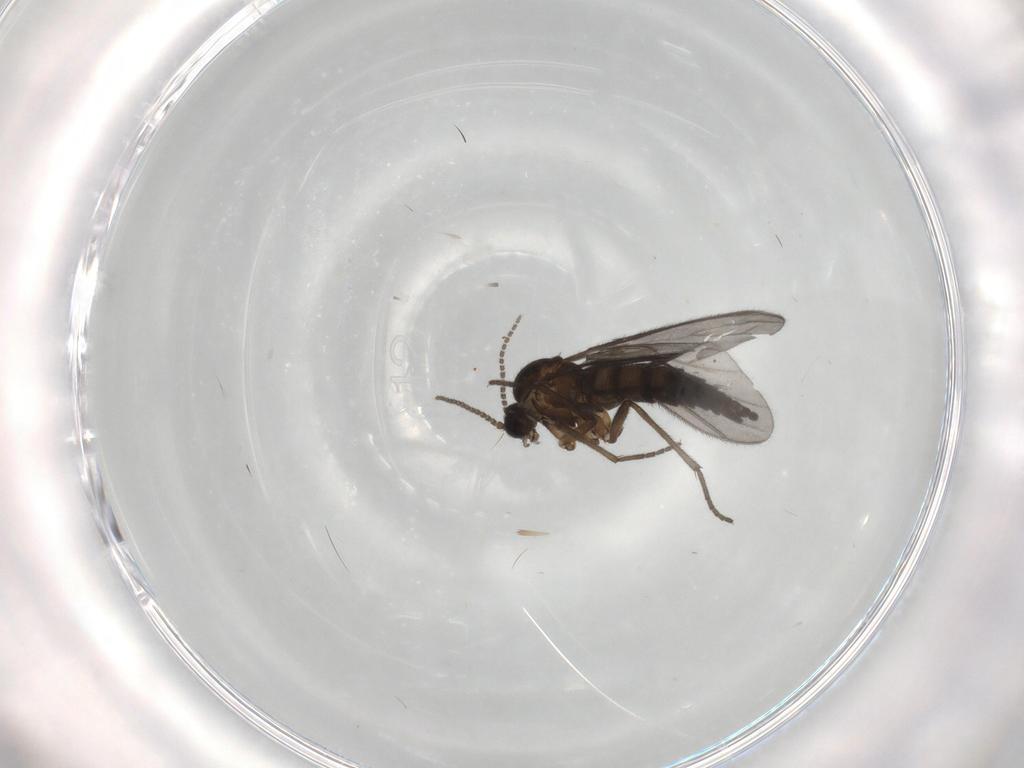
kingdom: Animalia
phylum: Arthropoda
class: Insecta
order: Diptera
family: Sciaridae
